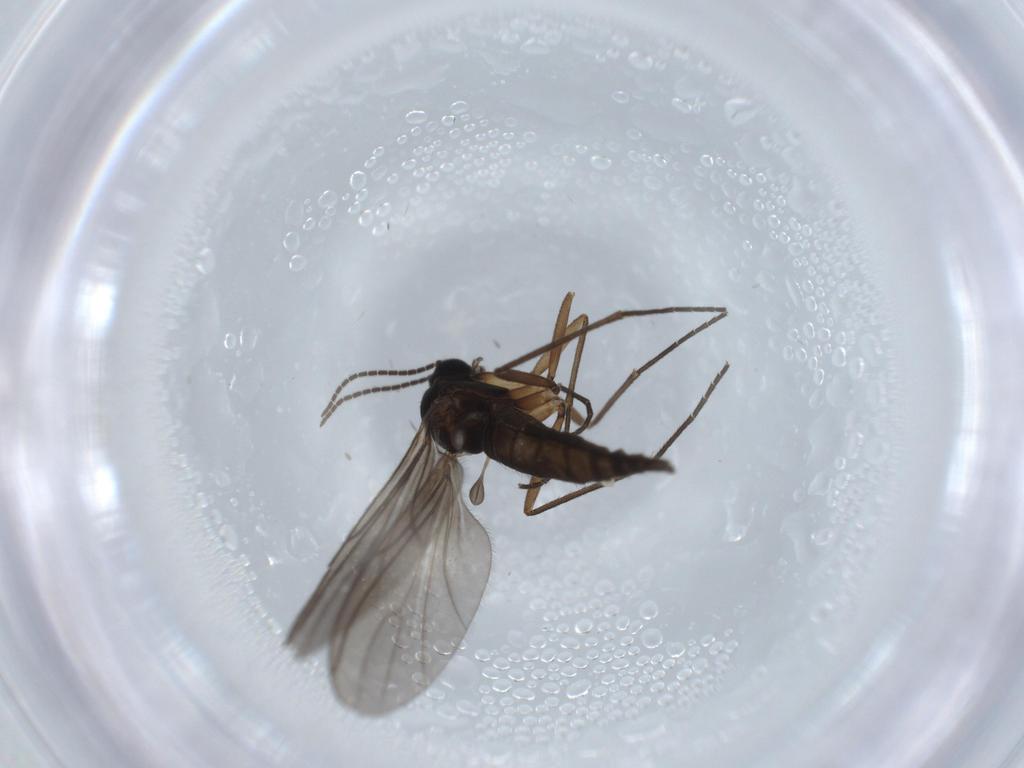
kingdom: Animalia
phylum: Arthropoda
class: Insecta
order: Diptera
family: Sciaridae
